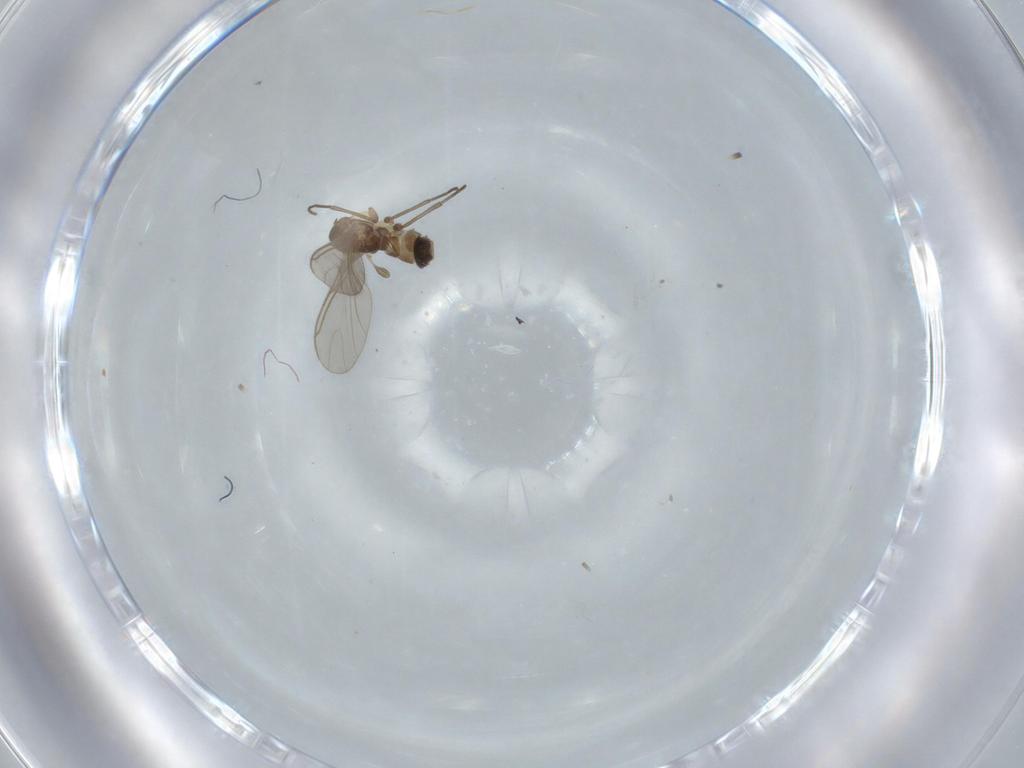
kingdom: Animalia
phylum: Arthropoda
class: Insecta
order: Diptera
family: Sciaridae
